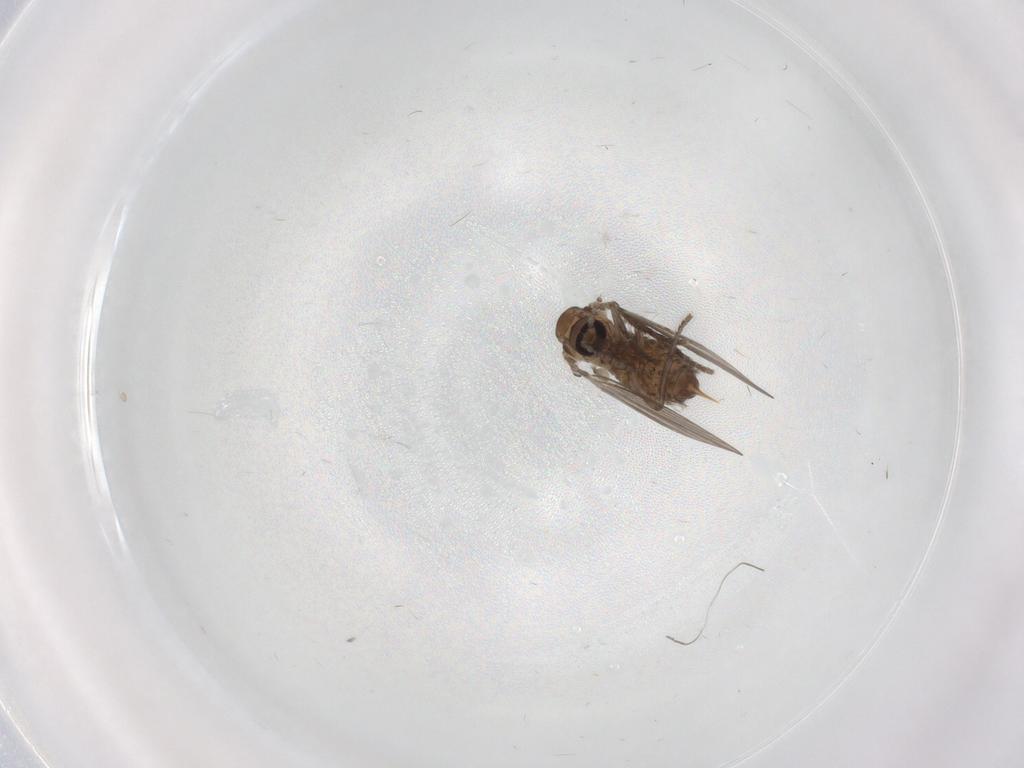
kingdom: Animalia
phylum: Arthropoda
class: Insecta
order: Diptera
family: Psychodidae
